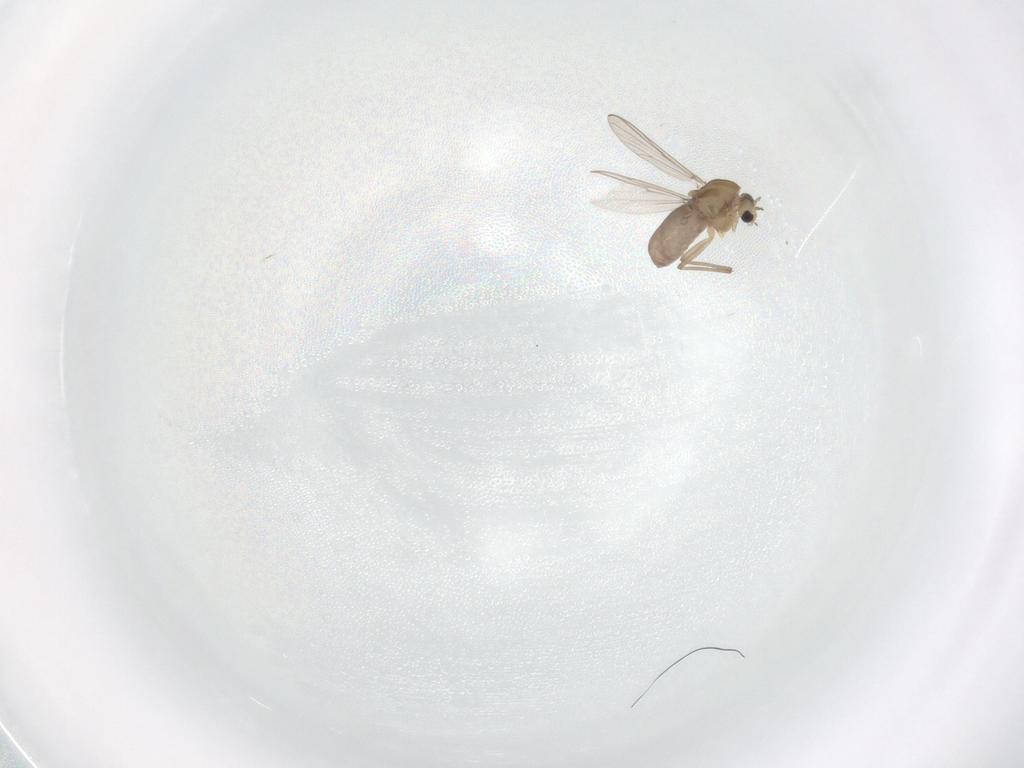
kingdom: Animalia
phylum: Arthropoda
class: Insecta
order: Diptera
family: Chironomidae
